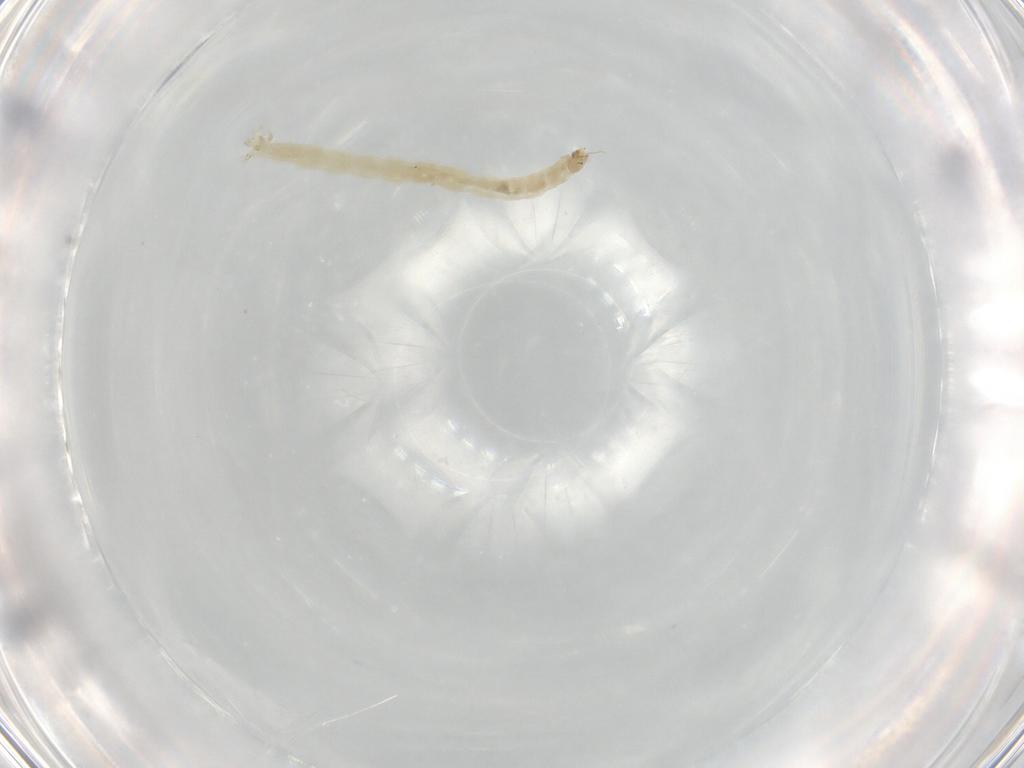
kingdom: Animalia
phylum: Arthropoda
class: Insecta
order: Diptera
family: Chironomidae
